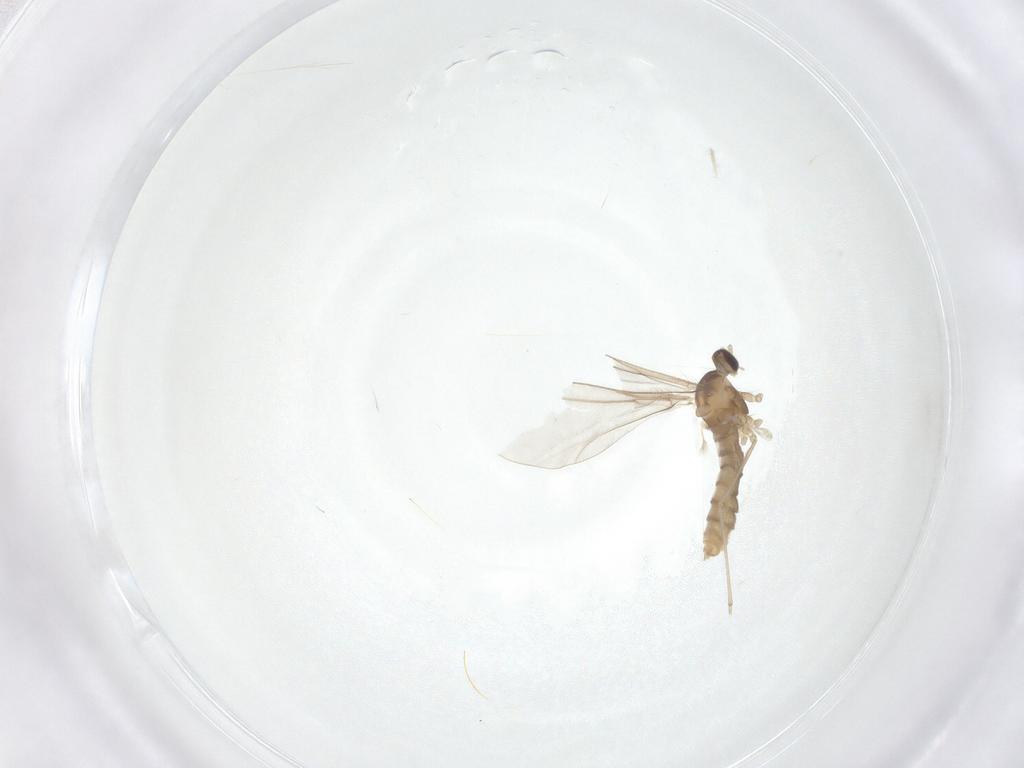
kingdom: Animalia
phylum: Arthropoda
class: Insecta
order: Diptera
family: Cecidomyiidae
